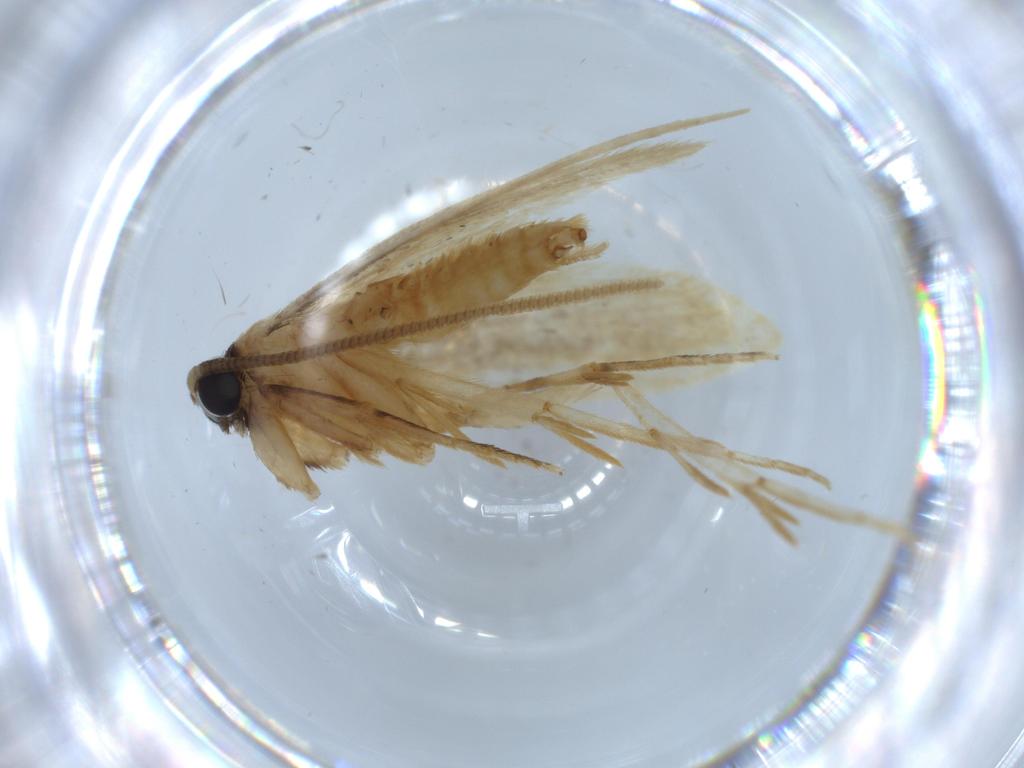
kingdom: Animalia
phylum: Arthropoda
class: Insecta
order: Lepidoptera
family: Tineidae
